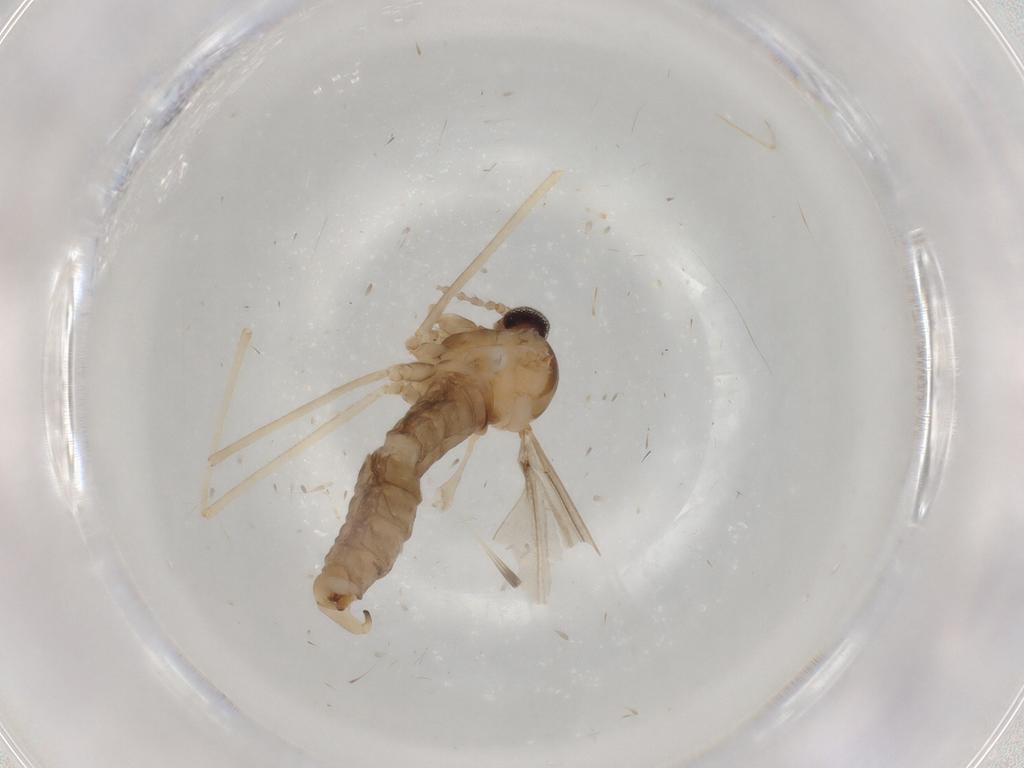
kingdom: Animalia
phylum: Arthropoda
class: Insecta
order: Diptera
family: Cecidomyiidae
